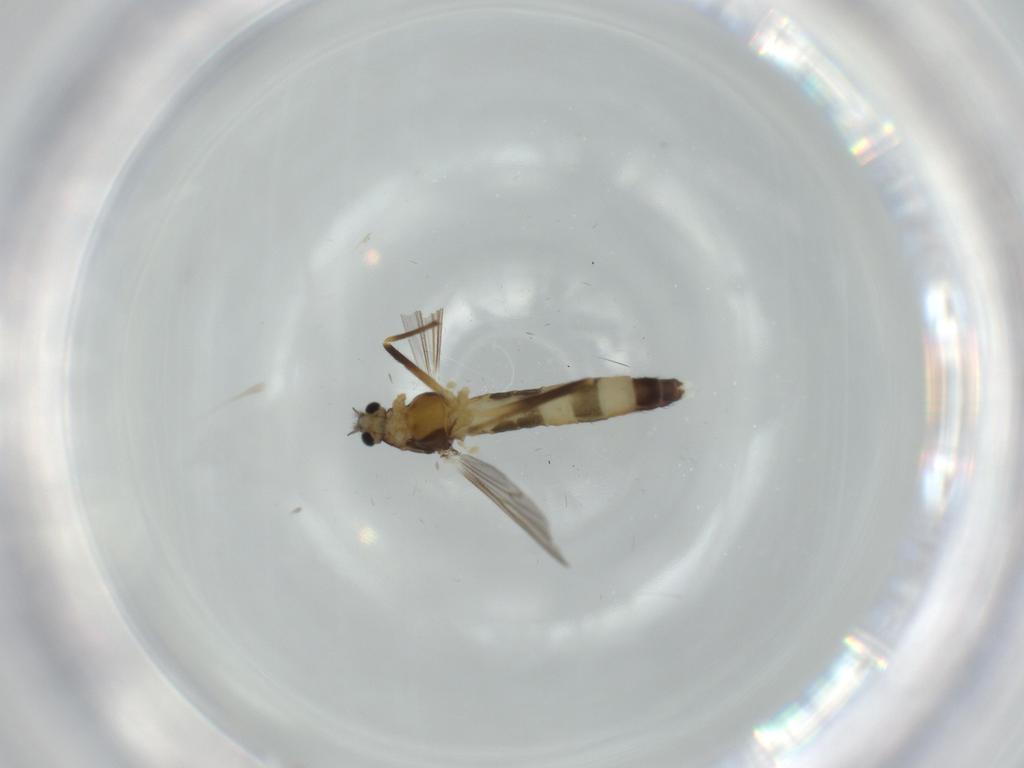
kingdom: Animalia
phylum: Arthropoda
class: Insecta
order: Diptera
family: Chironomidae
